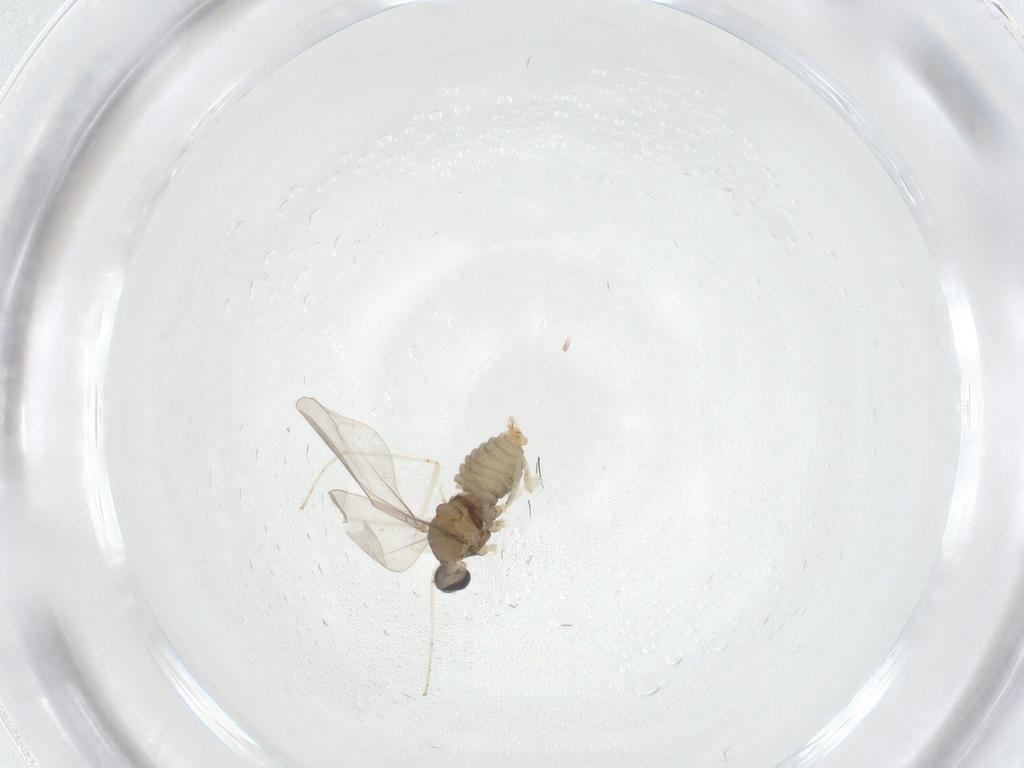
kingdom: Animalia
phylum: Arthropoda
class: Insecta
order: Diptera
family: Cecidomyiidae
